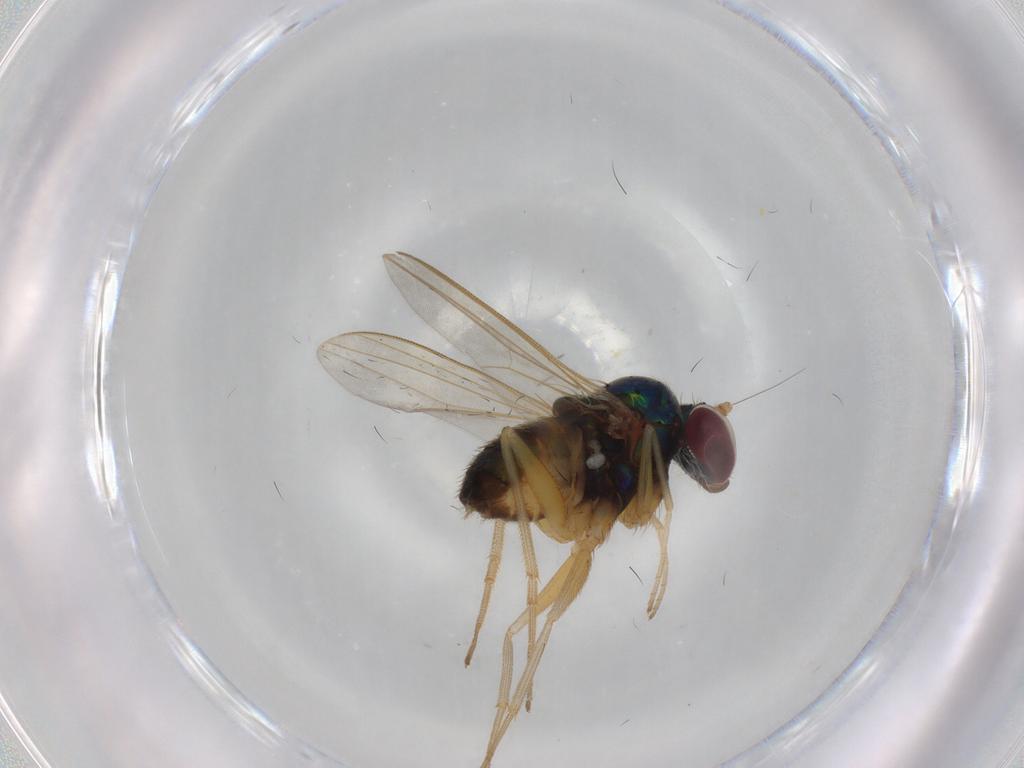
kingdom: Animalia
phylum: Arthropoda
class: Insecta
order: Diptera
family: Dolichopodidae
